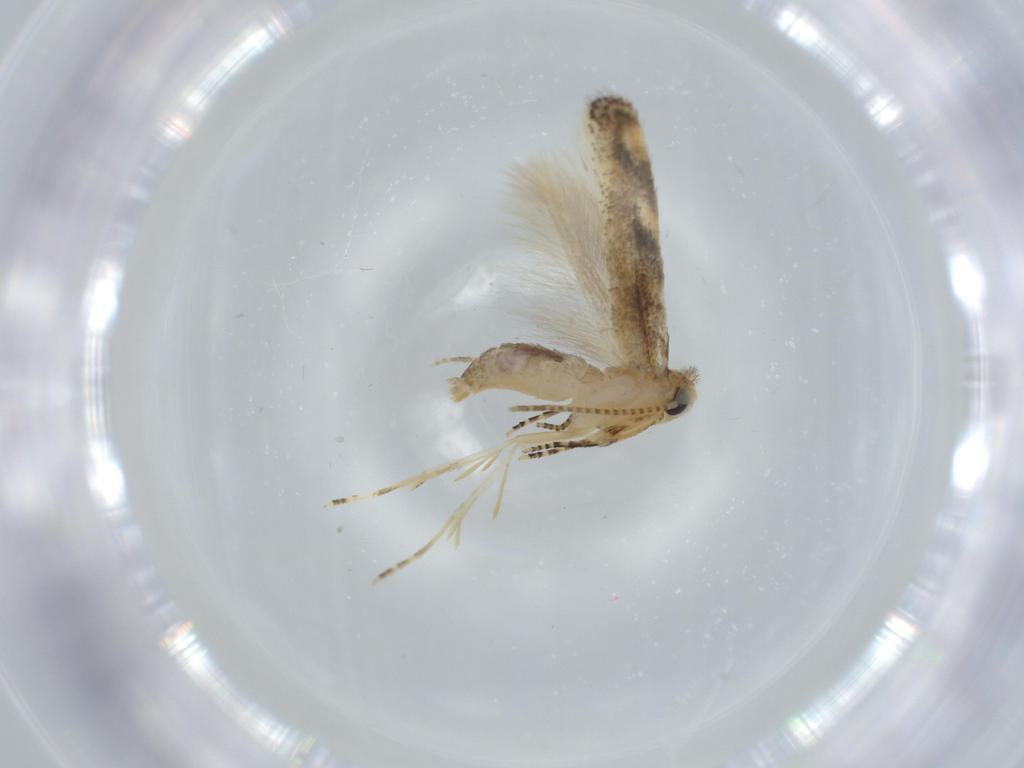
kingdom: Animalia
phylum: Arthropoda
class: Insecta
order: Lepidoptera
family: Bucculatricidae
